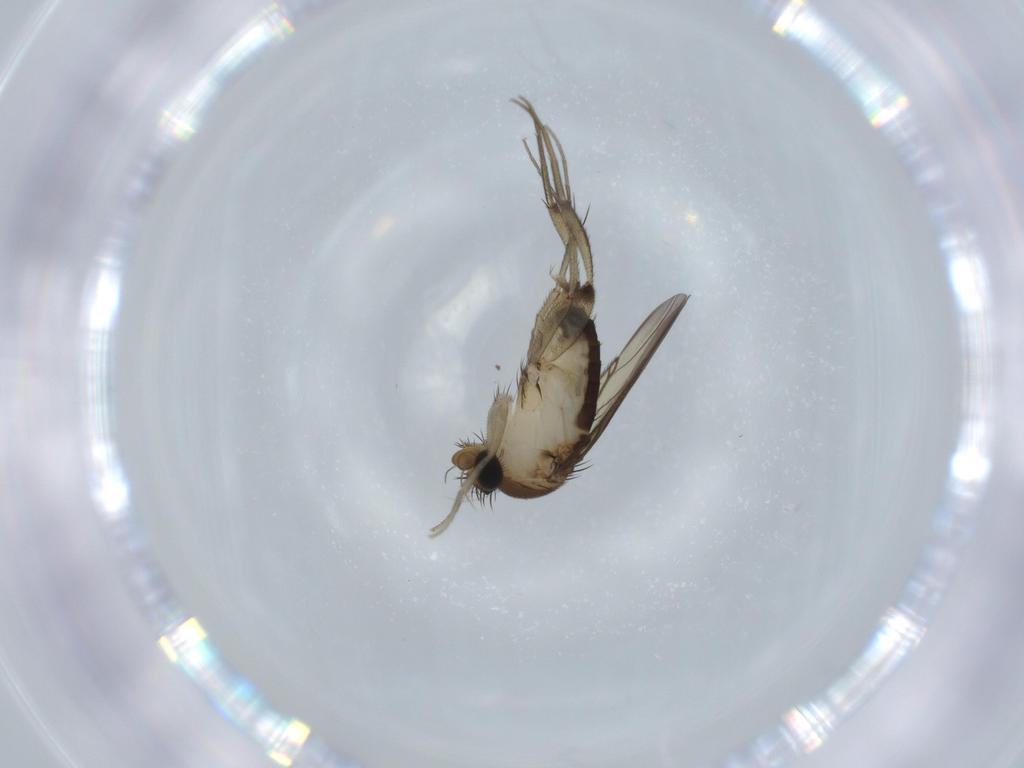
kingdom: Animalia
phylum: Arthropoda
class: Insecta
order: Diptera
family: Phoridae
